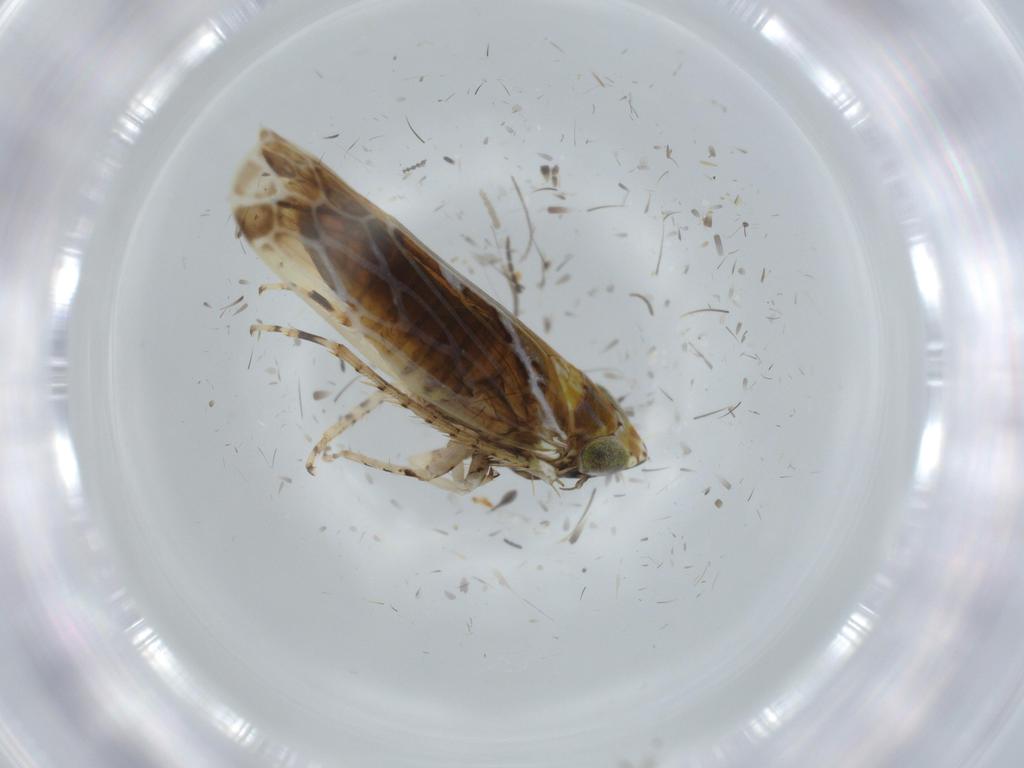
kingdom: Animalia
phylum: Arthropoda
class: Insecta
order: Hemiptera
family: Cicadellidae
